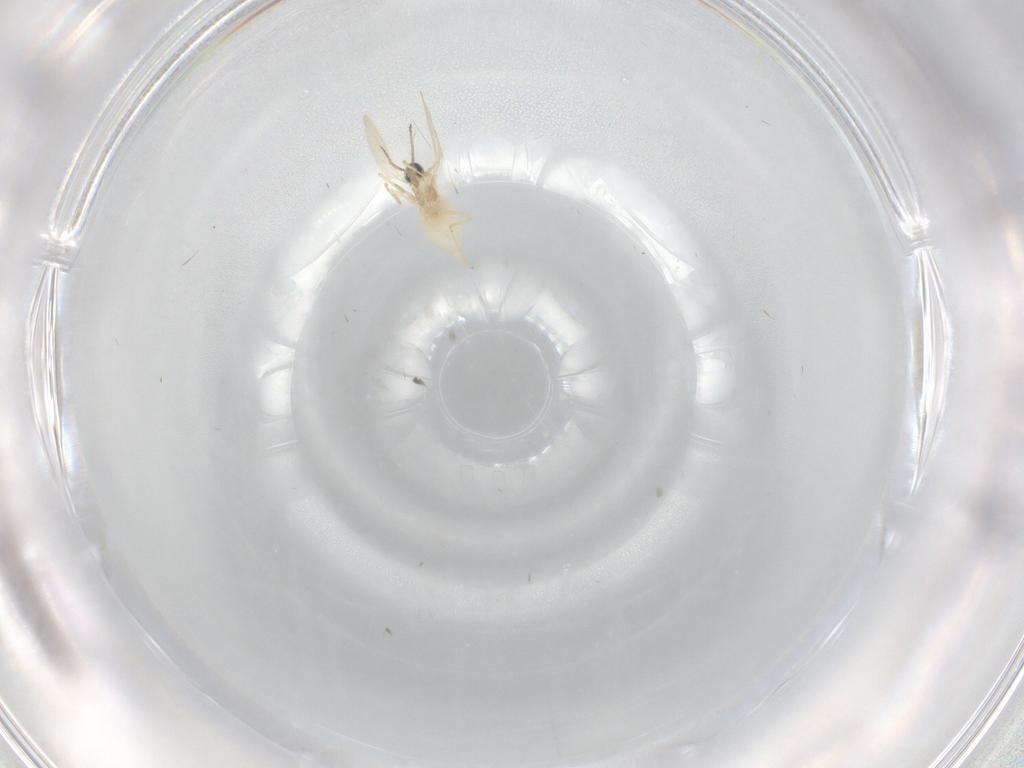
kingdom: Animalia
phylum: Arthropoda
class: Insecta
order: Diptera
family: Cecidomyiidae
